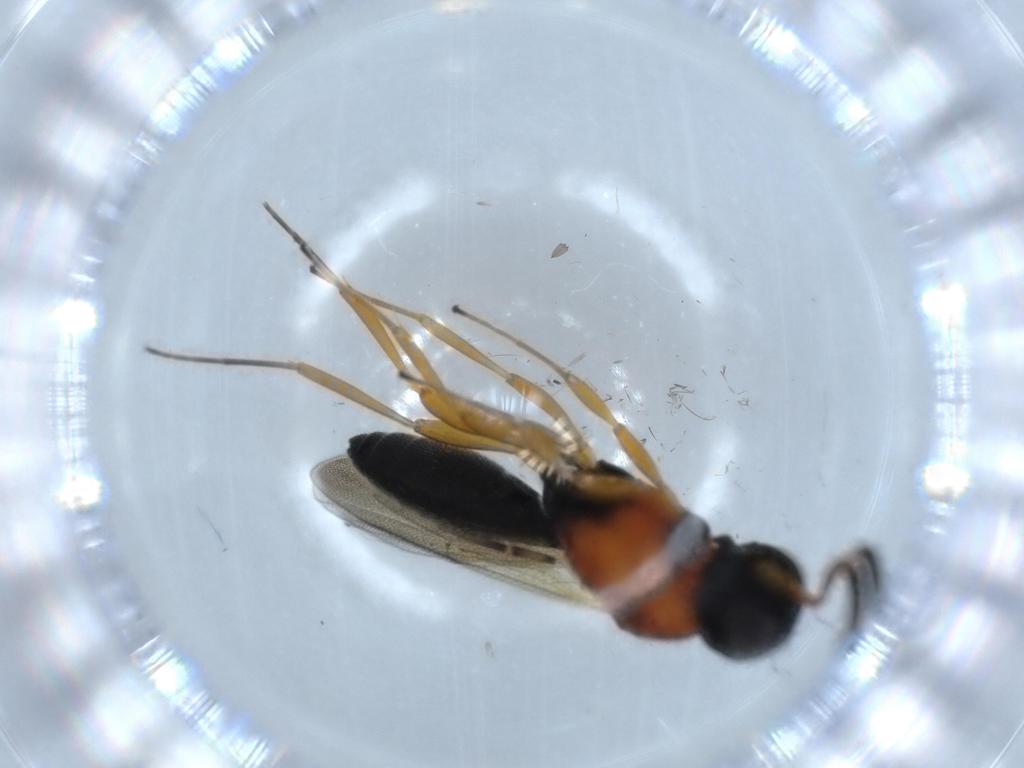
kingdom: Animalia
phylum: Arthropoda
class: Insecta
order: Hymenoptera
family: Scelionidae
